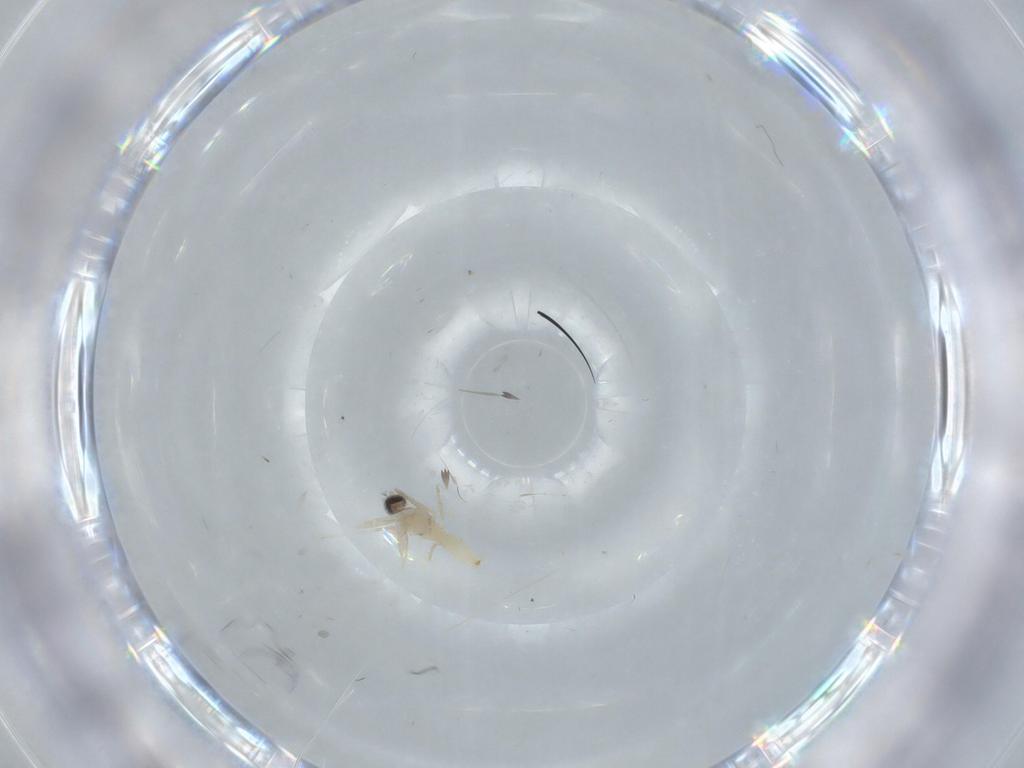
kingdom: Animalia
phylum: Arthropoda
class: Insecta
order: Diptera
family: Cecidomyiidae
